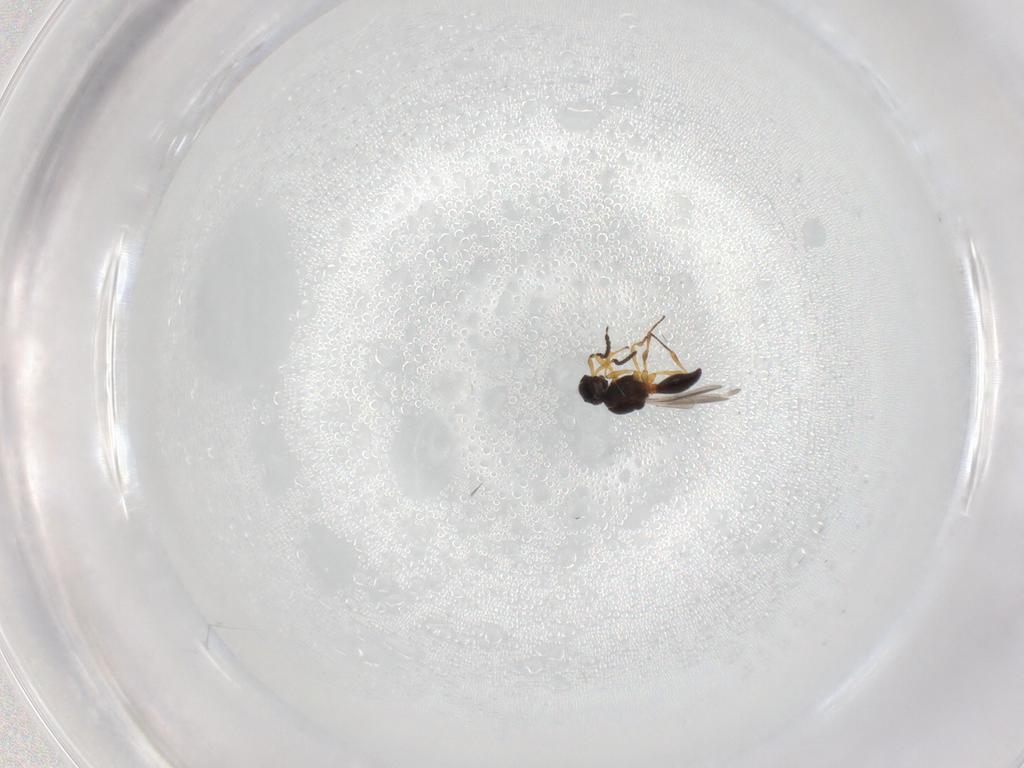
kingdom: Animalia
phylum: Arthropoda
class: Insecta
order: Hymenoptera
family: Platygastridae
